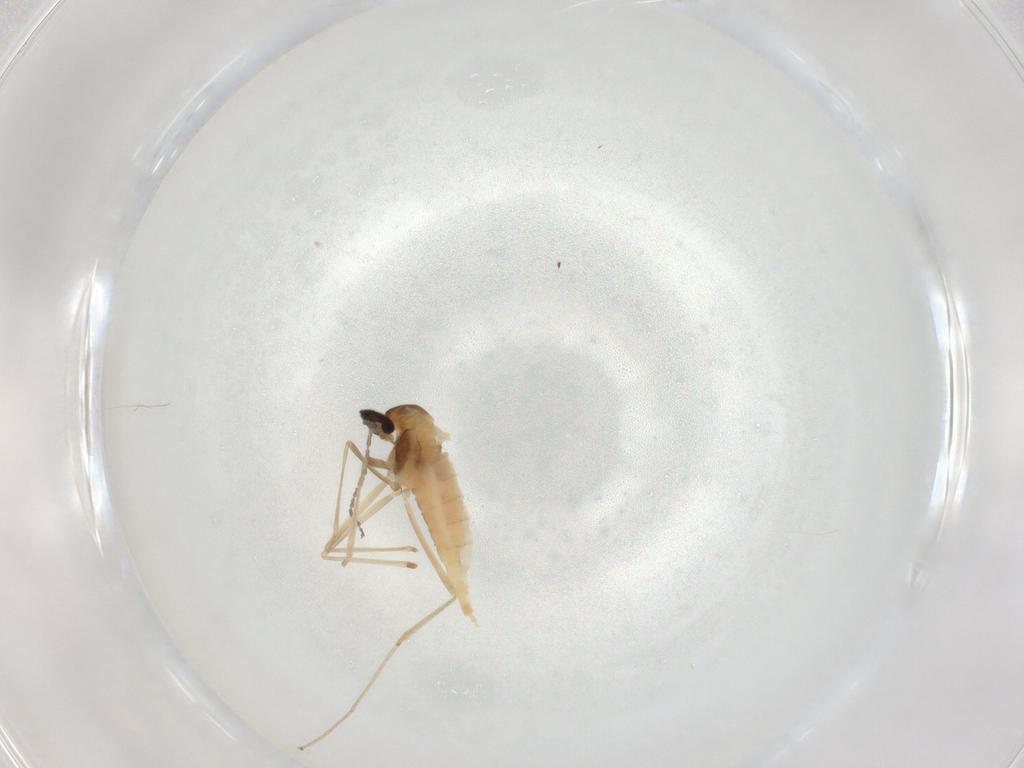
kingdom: Animalia
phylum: Arthropoda
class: Insecta
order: Diptera
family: Cecidomyiidae
